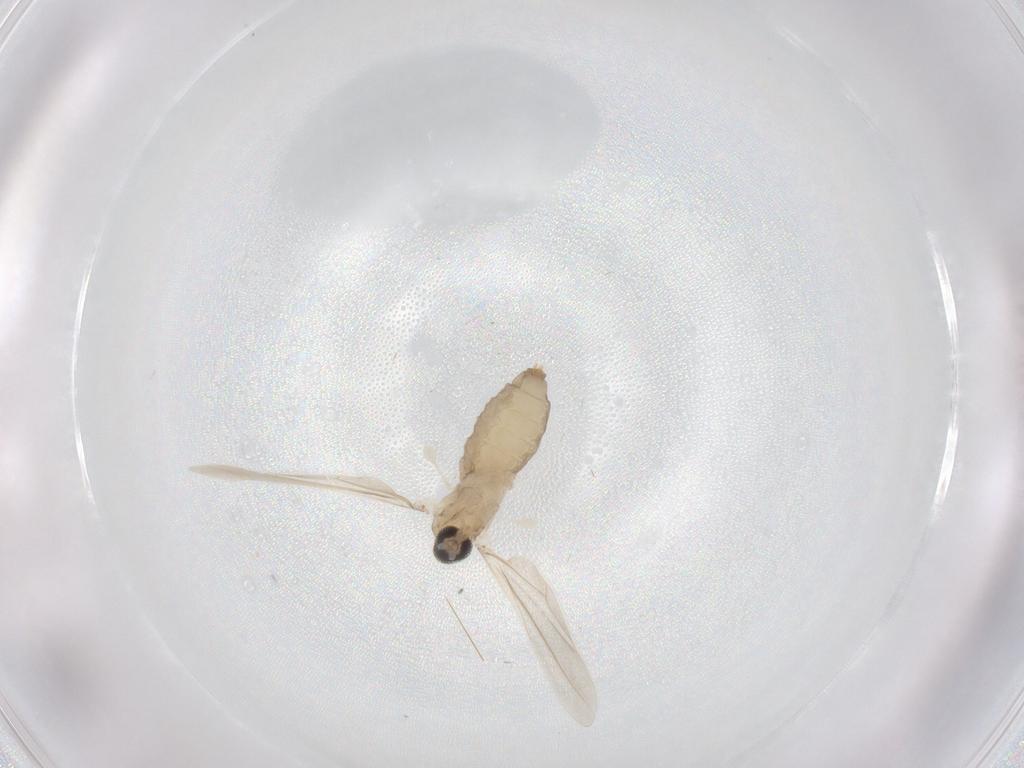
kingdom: Animalia
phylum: Arthropoda
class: Insecta
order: Diptera
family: Cecidomyiidae
